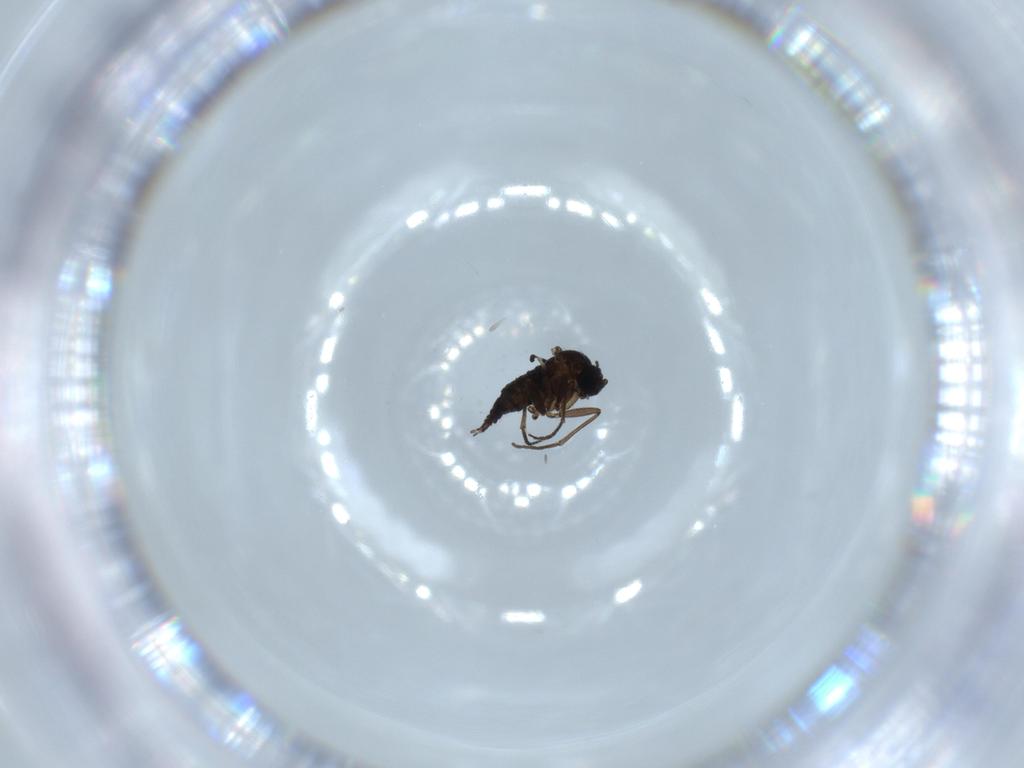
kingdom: Animalia
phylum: Arthropoda
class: Insecta
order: Diptera
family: Sciaridae
